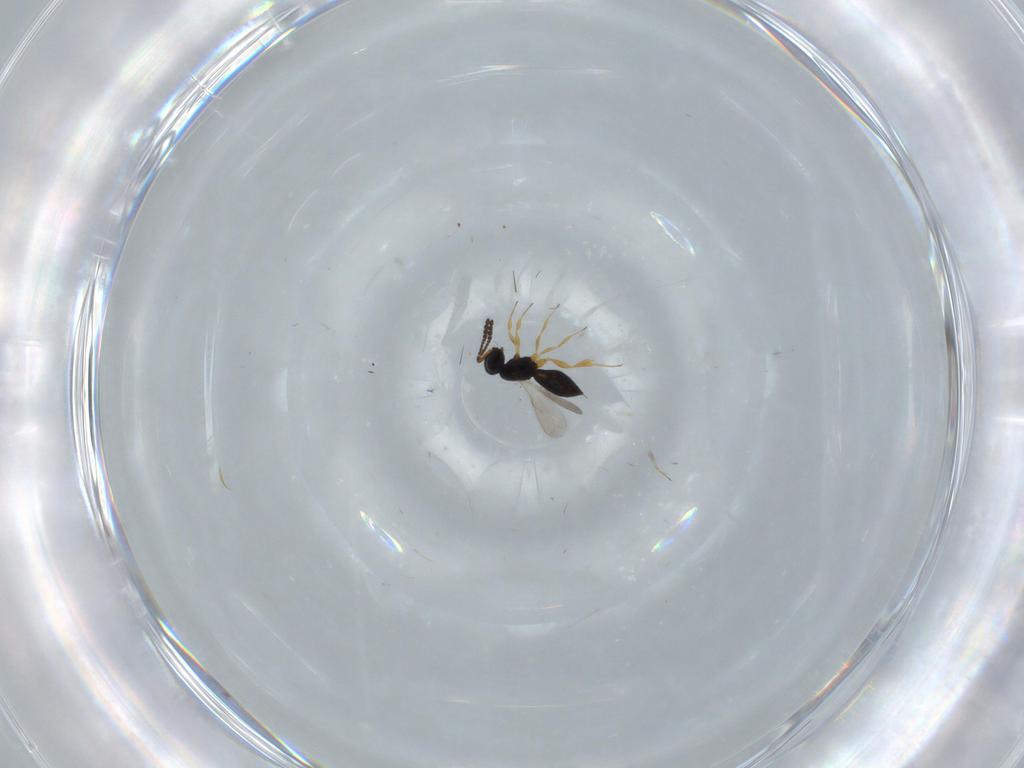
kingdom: Animalia
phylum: Arthropoda
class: Insecta
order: Hymenoptera
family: Scelionidae
